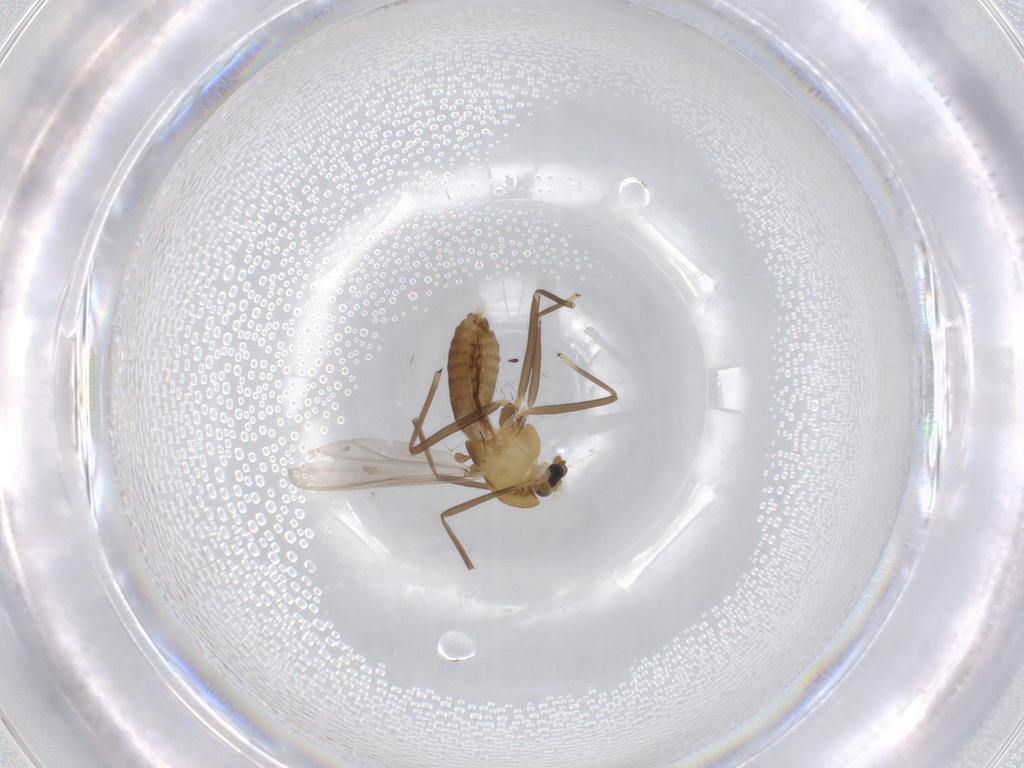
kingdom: Animalia
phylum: Arthropoda
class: Insecta
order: Diptera
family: Chironomidae
